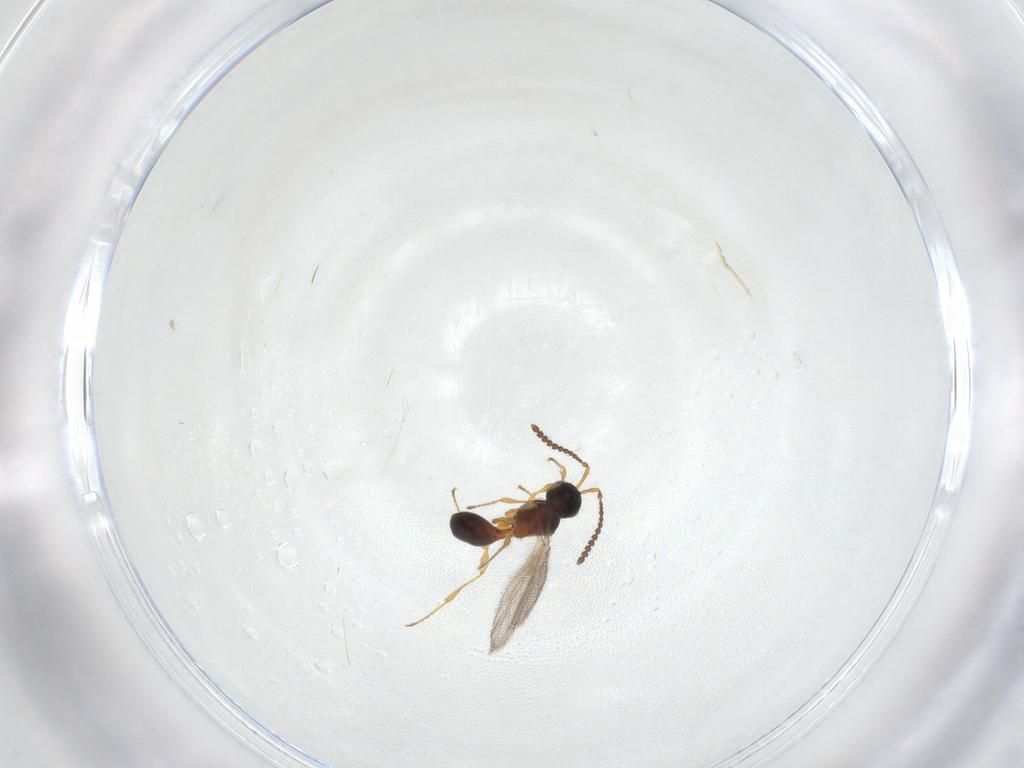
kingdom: Animalia
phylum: Arthropoda
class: Insecta
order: Hymenoptera
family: Diapriidae
